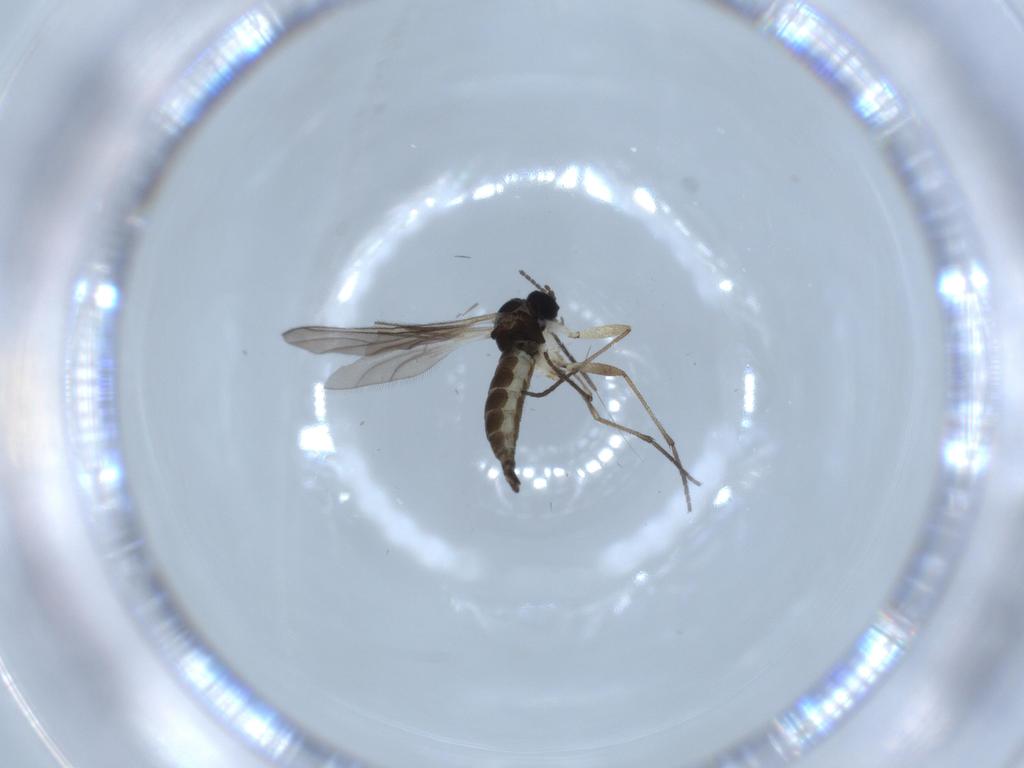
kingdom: Animalia
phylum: Arthropoda
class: Insecta
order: Diptera
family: Sciaridae
